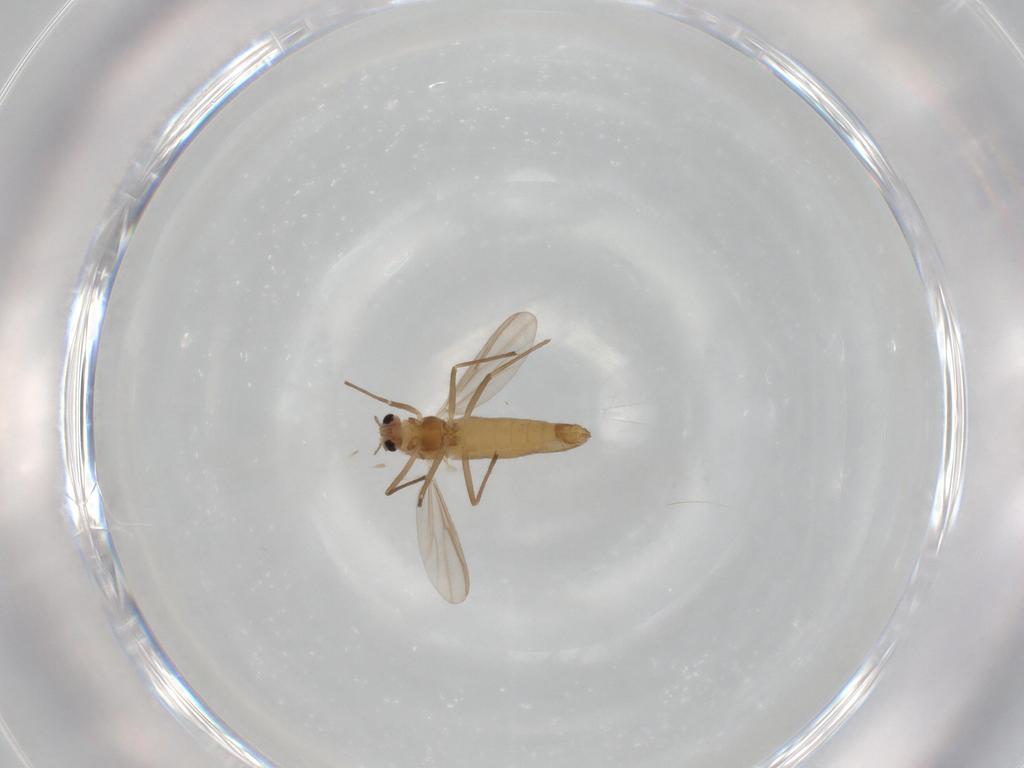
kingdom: Animalia
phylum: Arthropoda
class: Insecta
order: Diptera
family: Chironomidae
